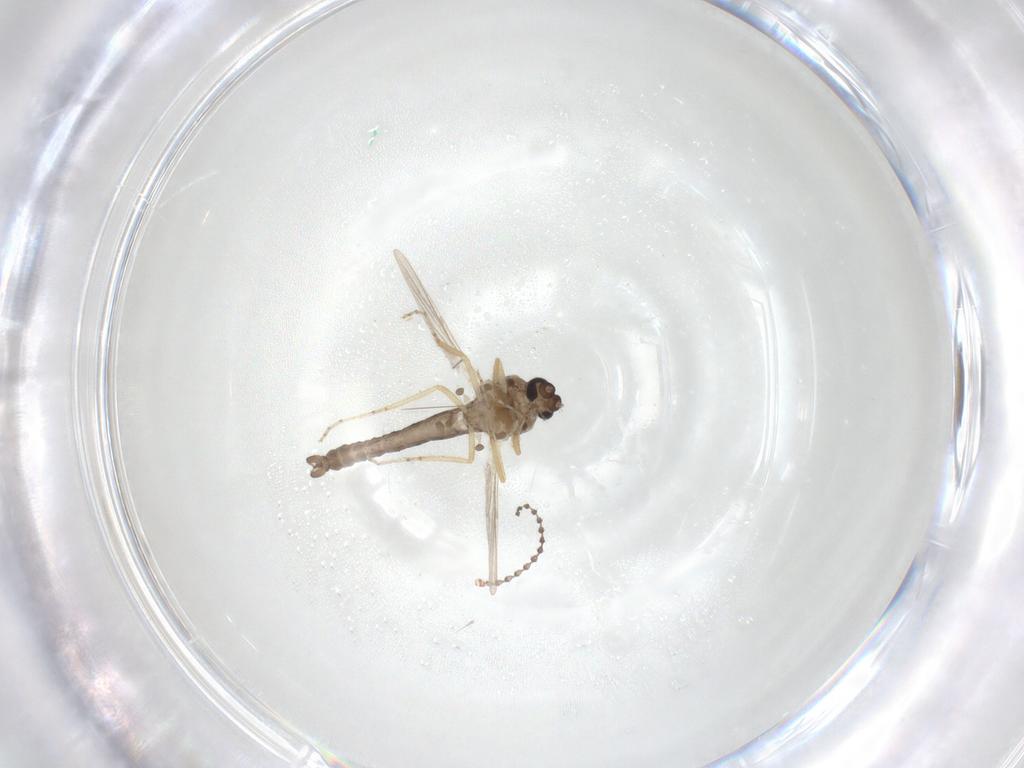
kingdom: Animalia
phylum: Arthropoda
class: Insecta
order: Diptera
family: Ceratopogonidae
